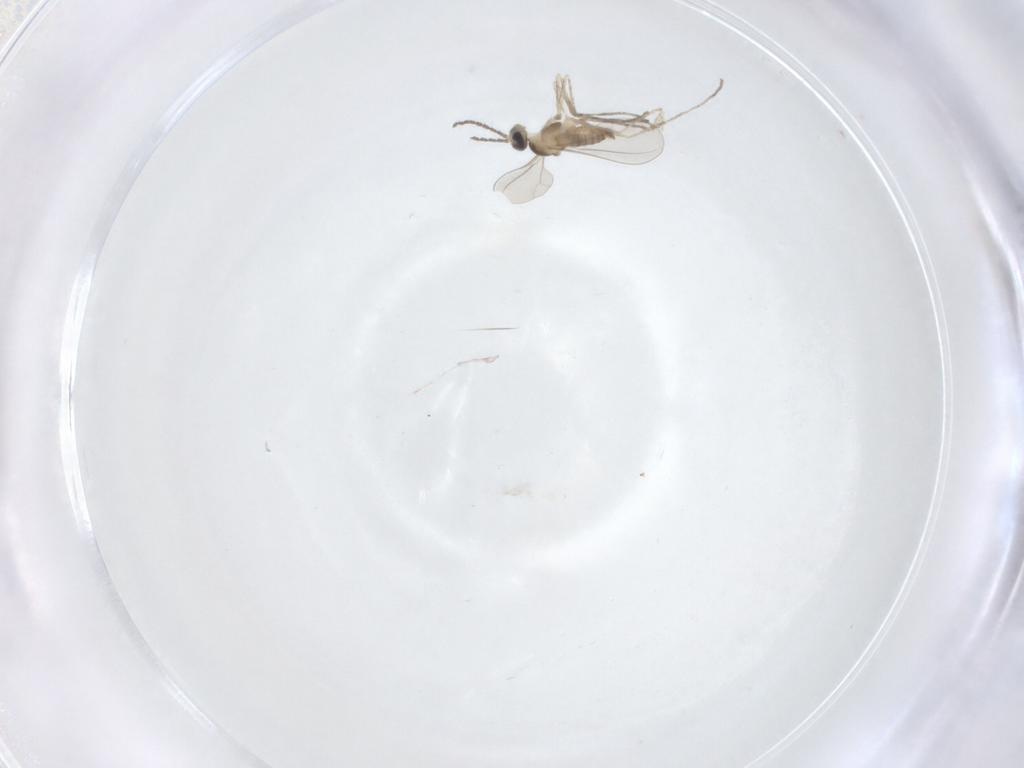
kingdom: Animalia
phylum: Arthropoda
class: Insecta
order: Diptera
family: Cecidomyiidae
